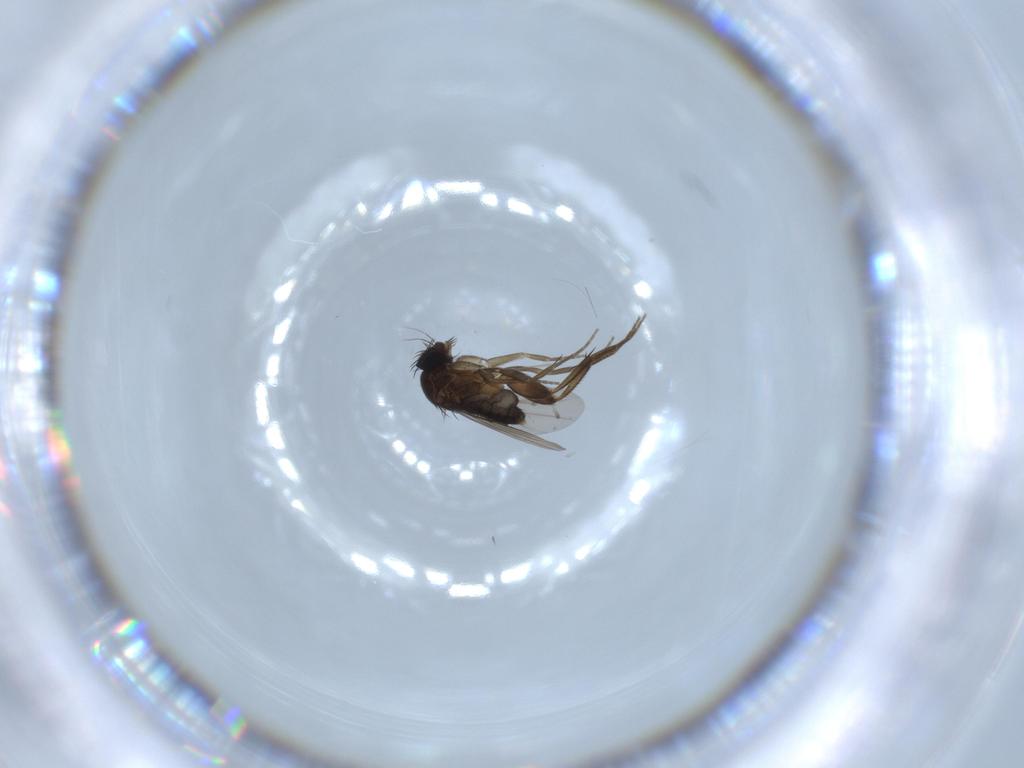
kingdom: Animalia
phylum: Arthropoda
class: Insecta
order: Diptera
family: Phoridae
